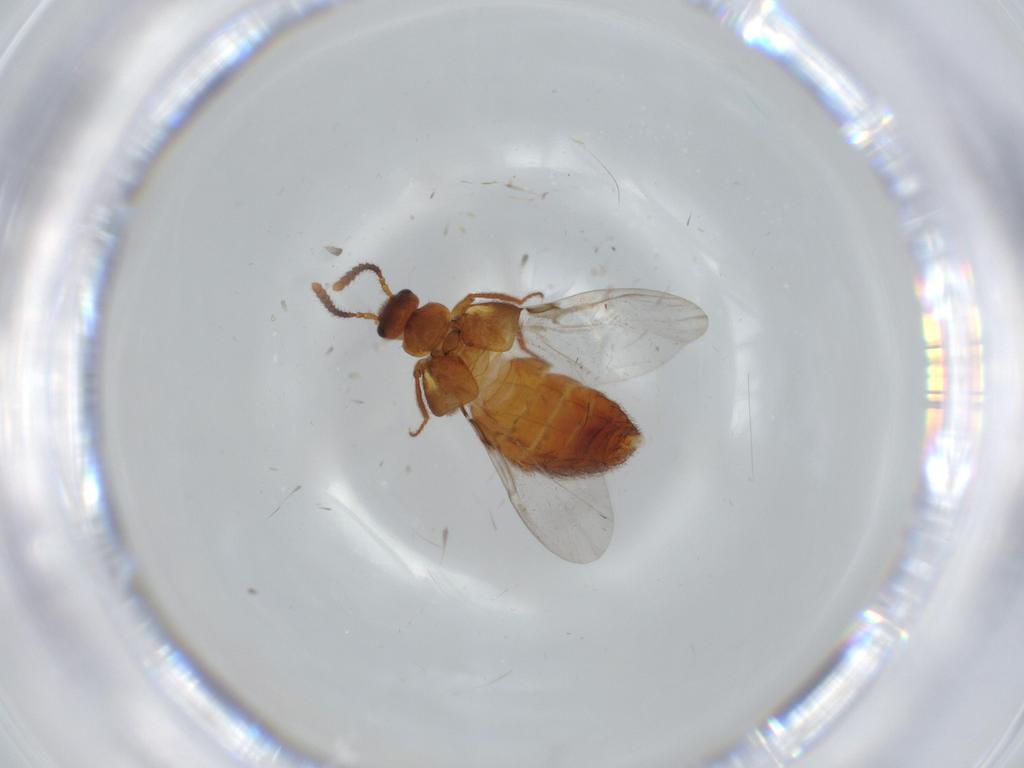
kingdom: Animalia
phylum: Arthropoda
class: Insecta
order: Coleoptera
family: Staphylinidae
